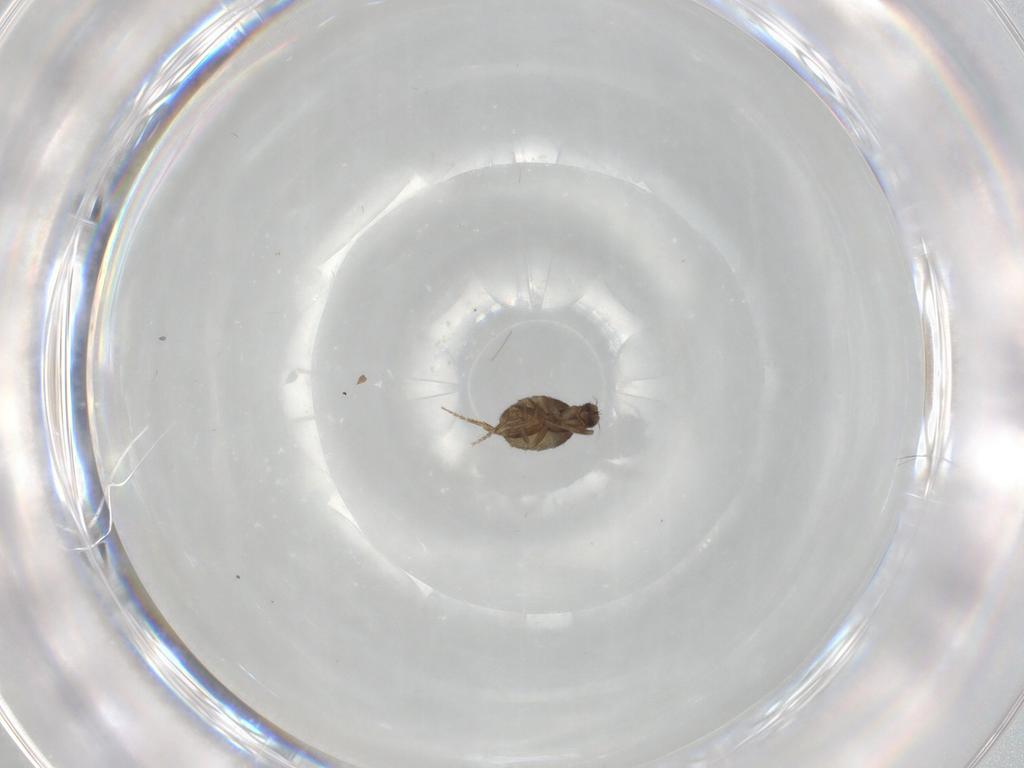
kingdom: Animalia
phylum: Arthropoda
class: Insecta
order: Diptera
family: Phoridae
